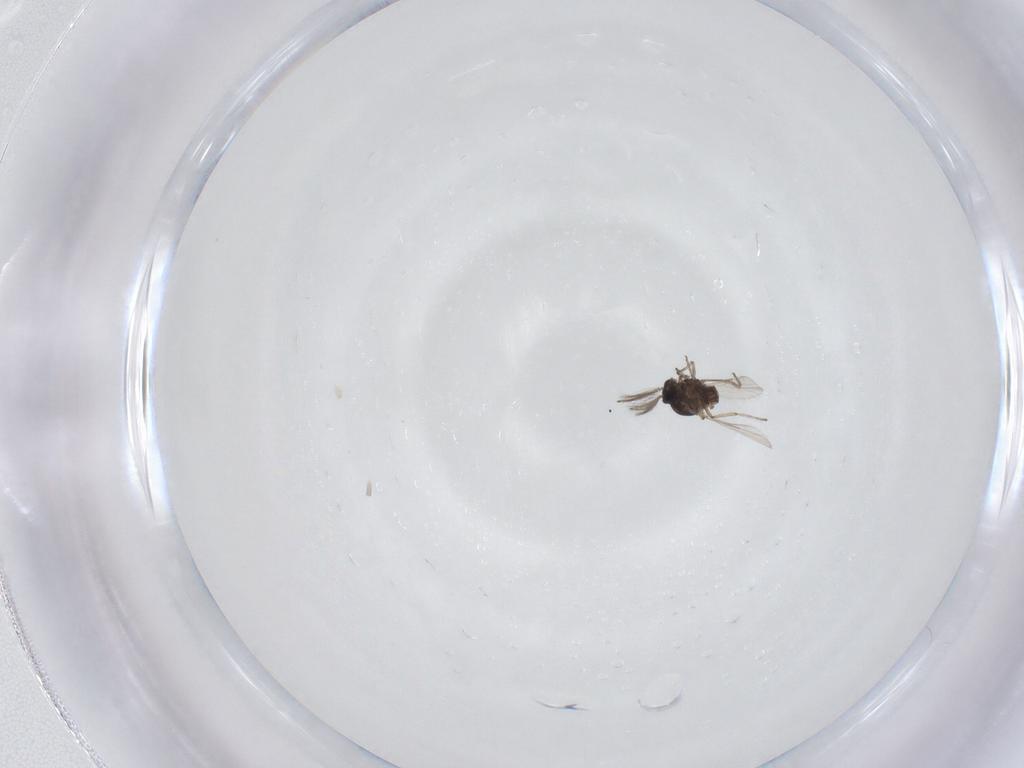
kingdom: Animalia
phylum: Arthropoda
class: Insecta
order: Diptera
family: Ceratopogonidae
